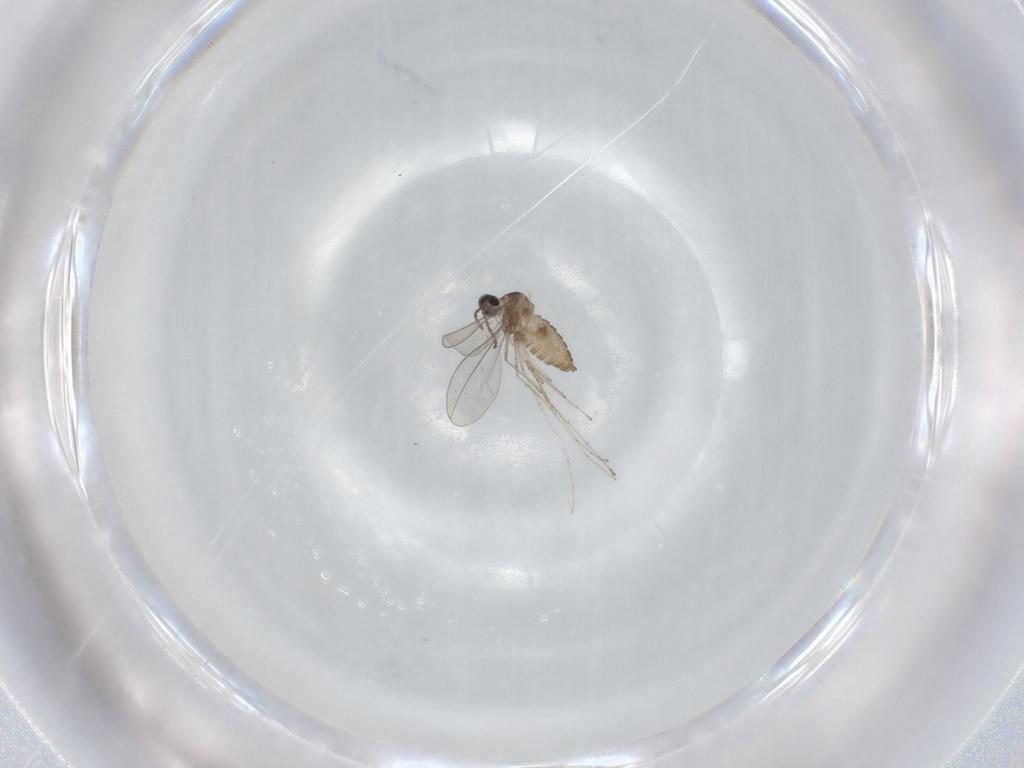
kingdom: Animalia
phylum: Arthropoda
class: Insecta
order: Diptera
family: Cecidomyiidae
